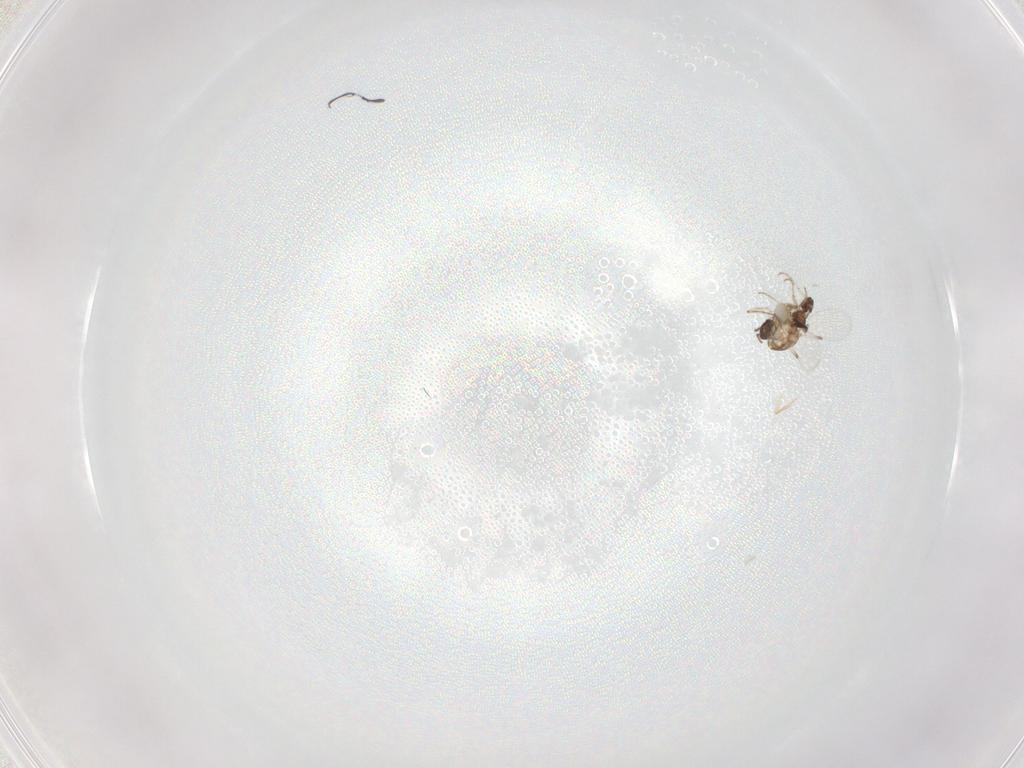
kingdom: Animalia
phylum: Arthropoda
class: Insecta
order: Diptera
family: Ceratopogonidae
